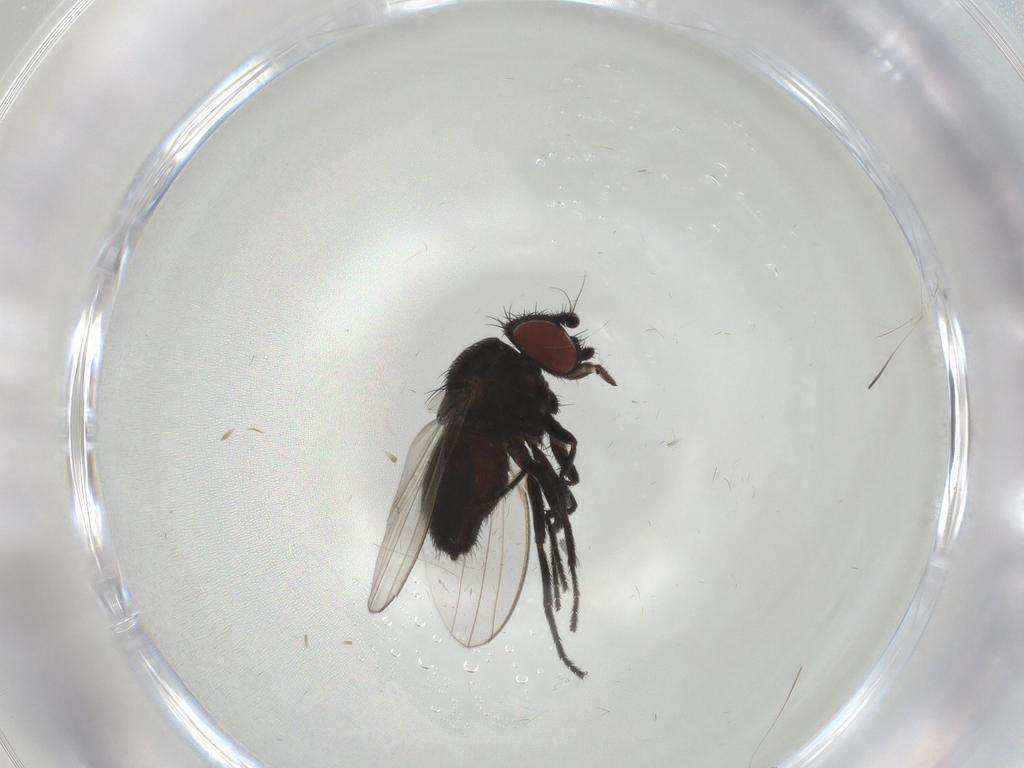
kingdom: Animalia
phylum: Arthropoda
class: Insecta
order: Diptera
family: Milichiidae
